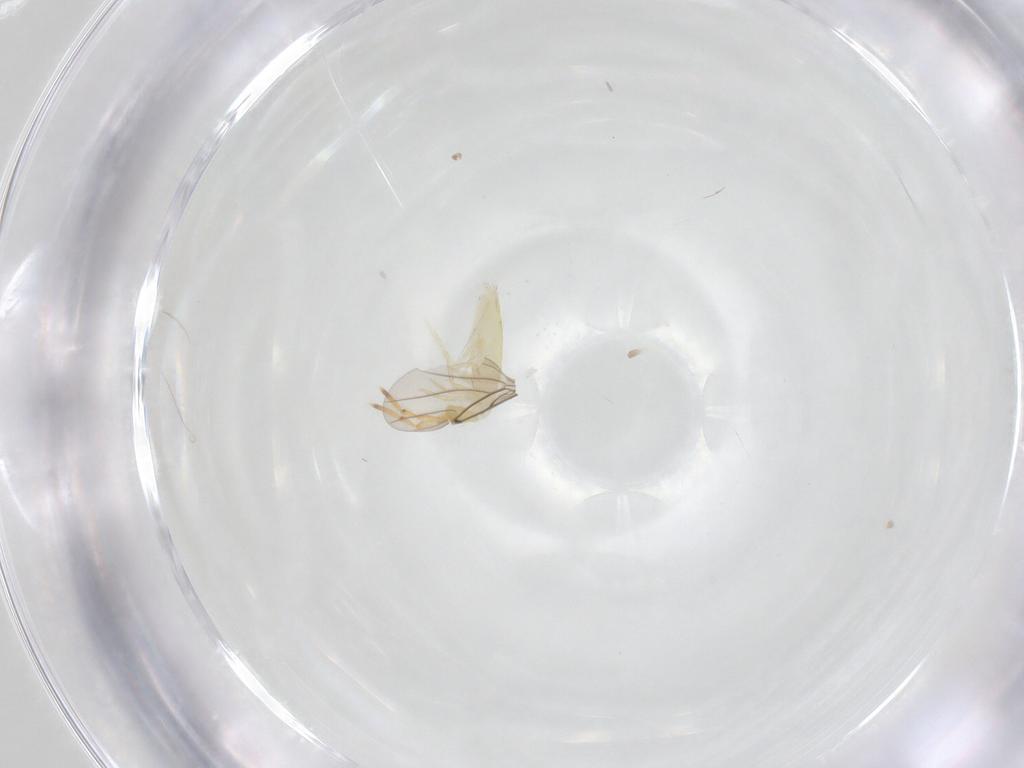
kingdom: Animalia
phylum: Arthropoda
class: Collembola
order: Entomobryomorpha
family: Entomobryidae
